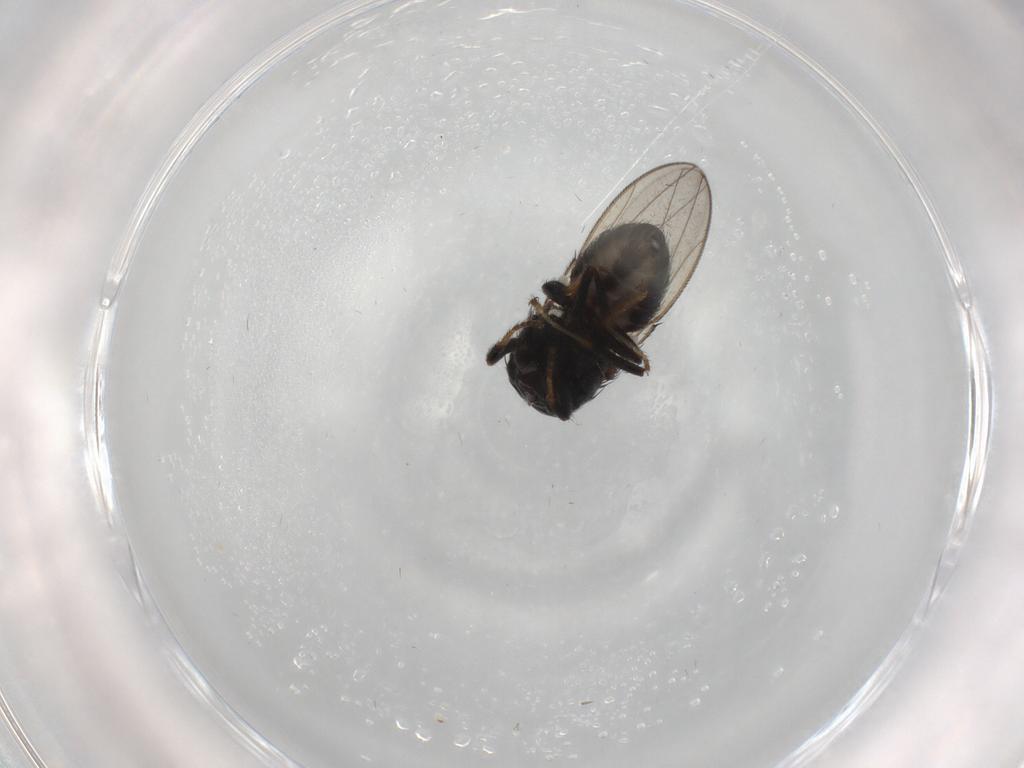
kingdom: Animalia
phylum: Arthropoda
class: Insecta
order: Diptera
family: Ephydridae
